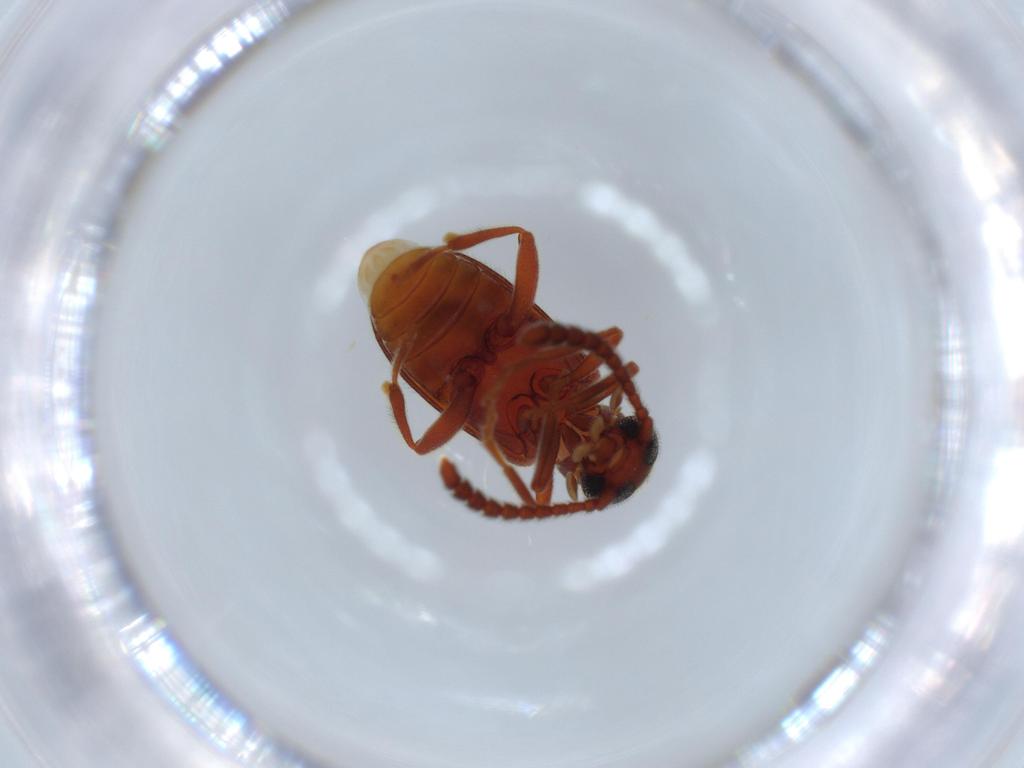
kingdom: Animalia
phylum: Arthropoda
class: Insecta
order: Coleoptera
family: Aderidae
